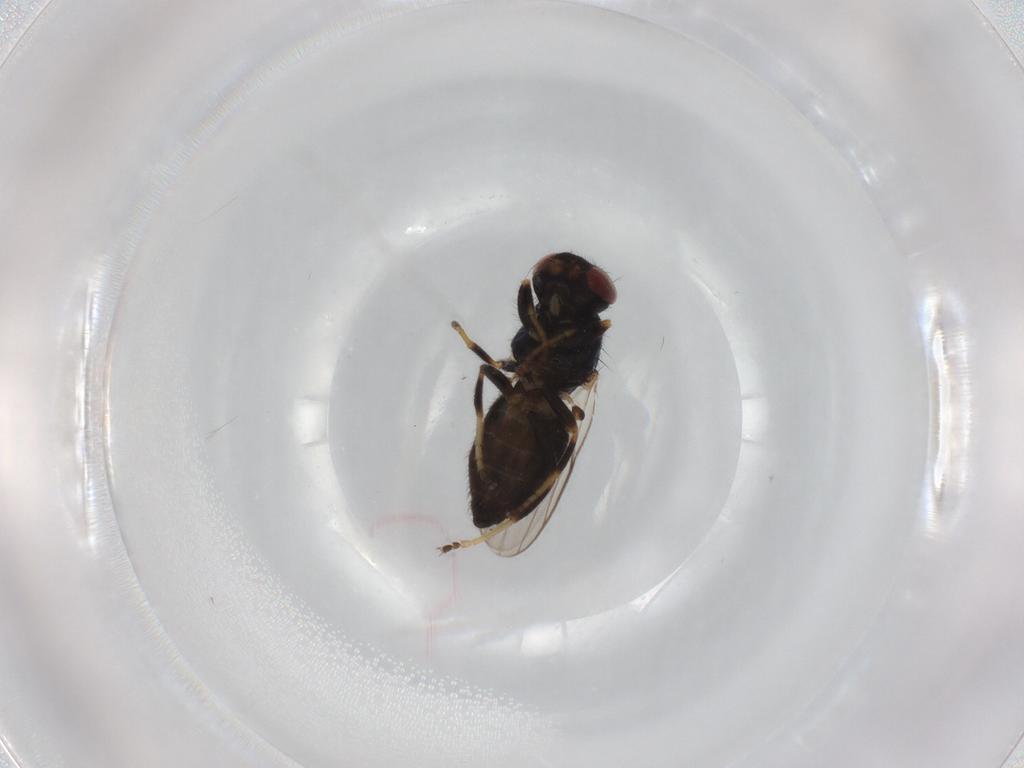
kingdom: Animalia
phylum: Arthropoda
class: Insecta
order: Diptera
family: Chloropidae
